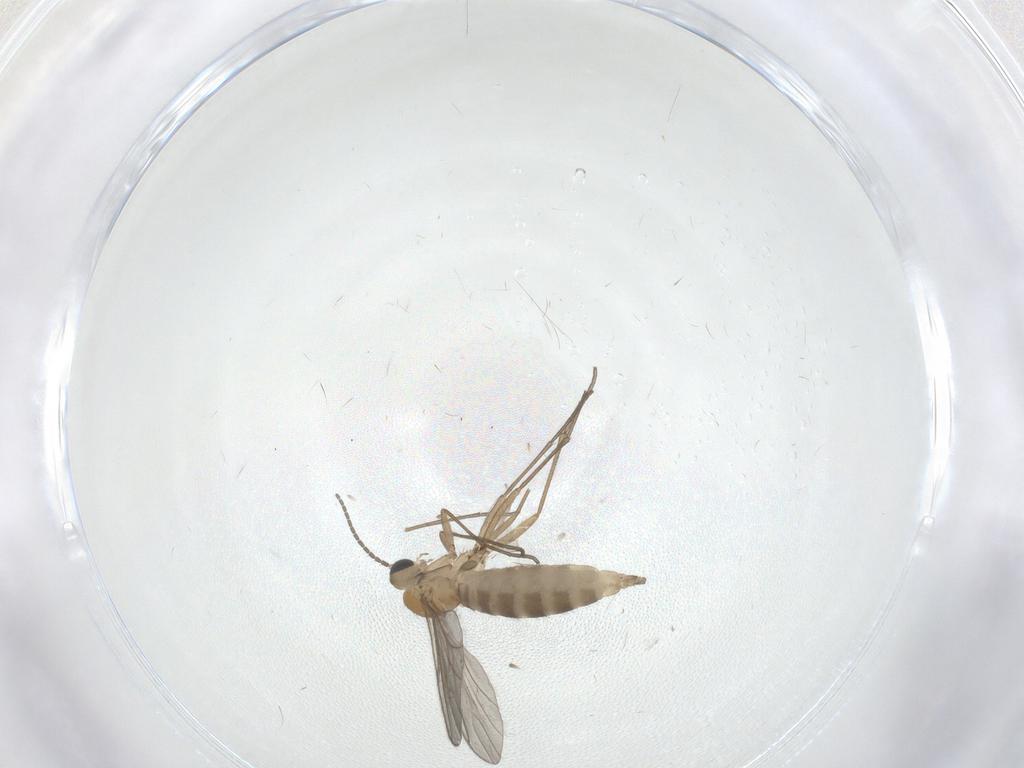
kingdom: Animalia
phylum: Arthropoda
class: Insecta
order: Diptera
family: Sciaridae
